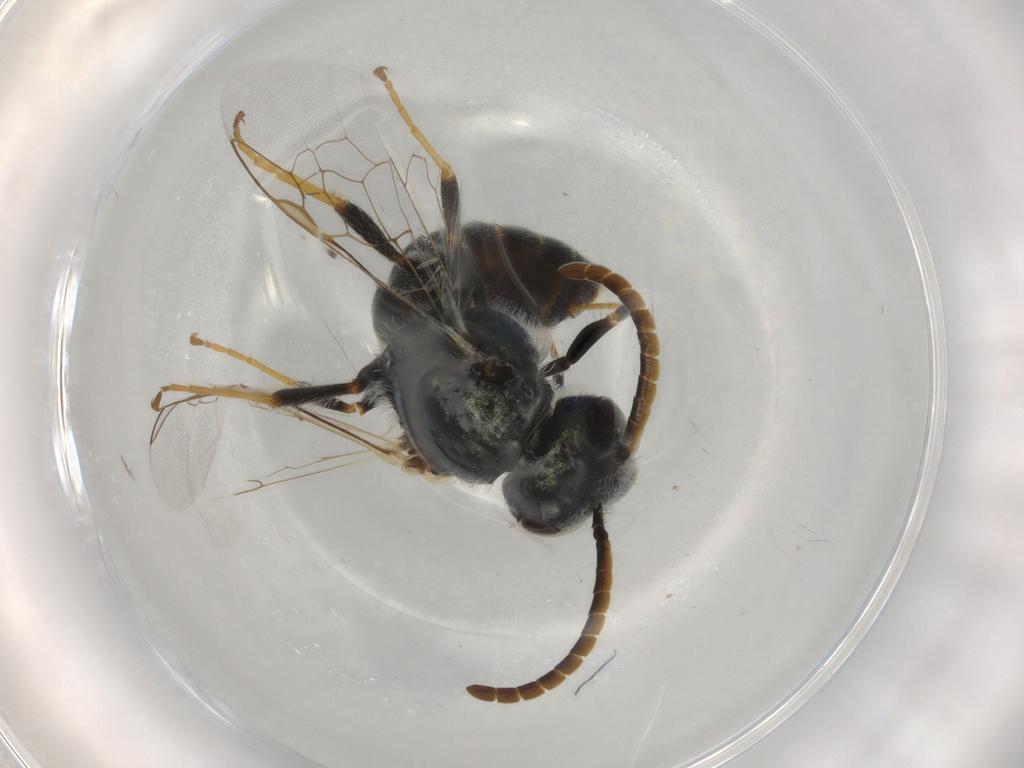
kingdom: Animalia
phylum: Arthropoda
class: Insecta
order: Hymenoptera
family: Halictidae
